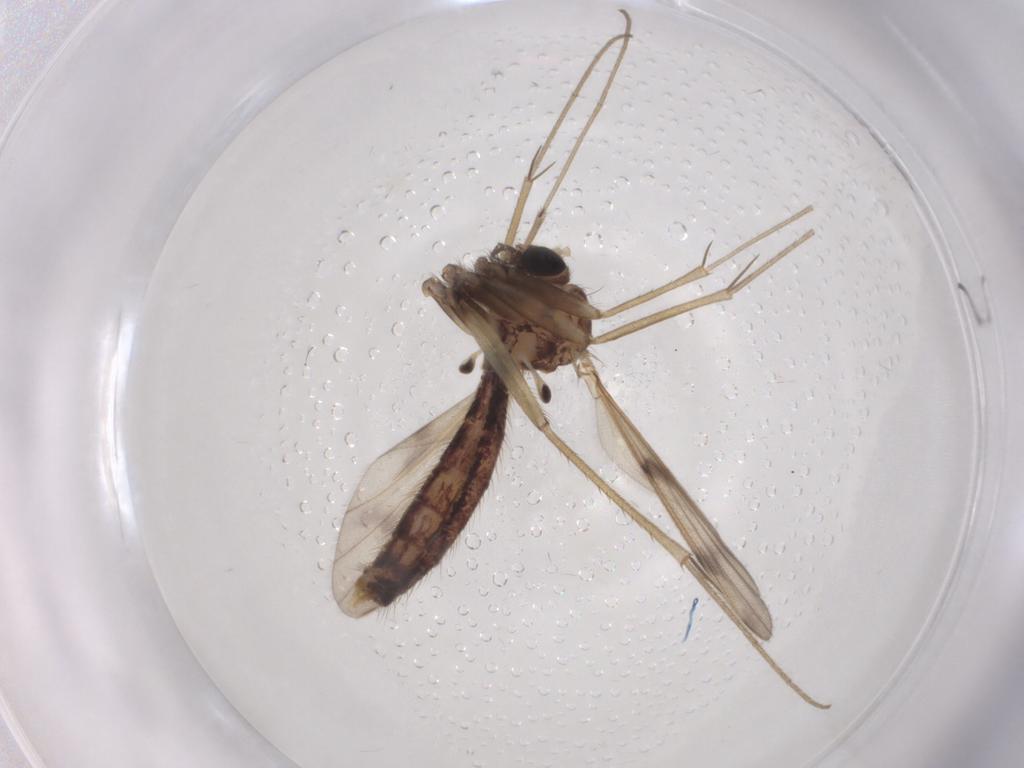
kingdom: Animalia
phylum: Arthropoda
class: Insecta
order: Diptera
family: Mycetophilidae
